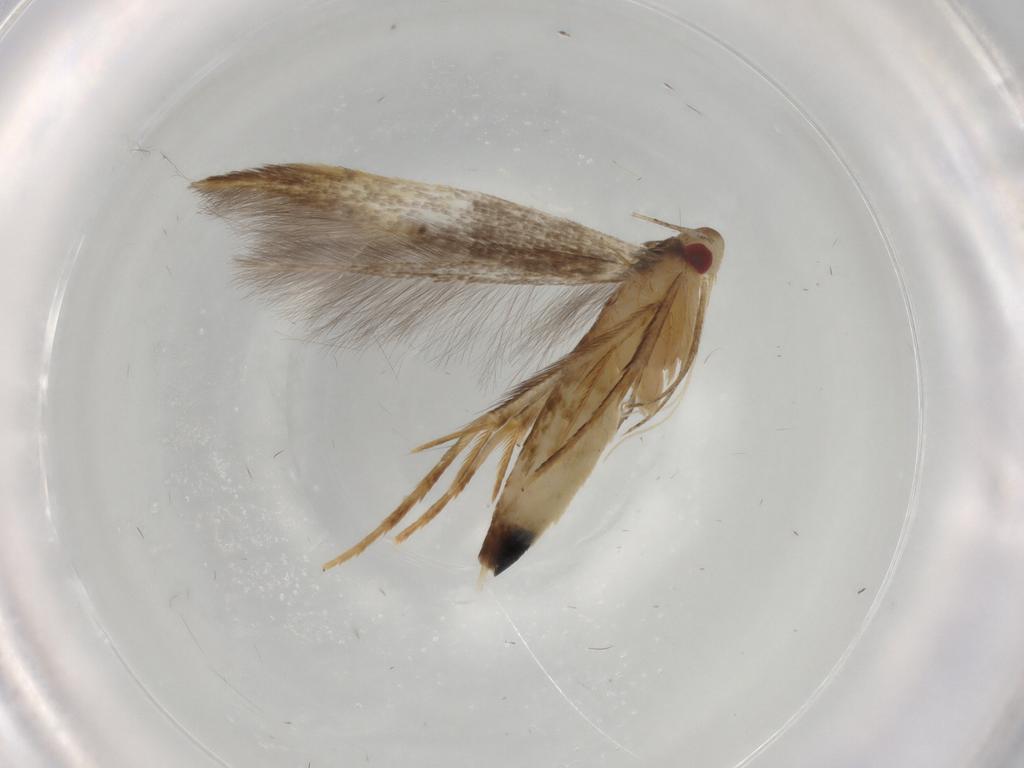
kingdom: Animalia
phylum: Arthropoda
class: Insecta
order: Lepidoptera
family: Gelechiidae
